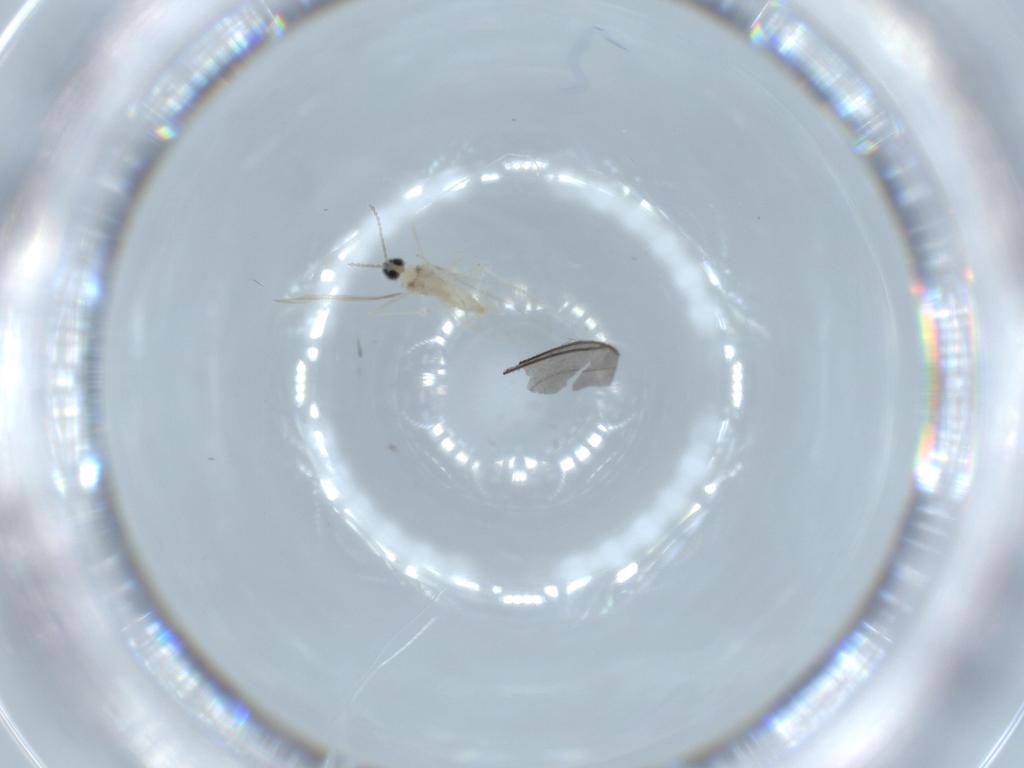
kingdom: Animalia
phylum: Arthropoda
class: Insecta
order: Diptera
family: Cecidomyiidae
